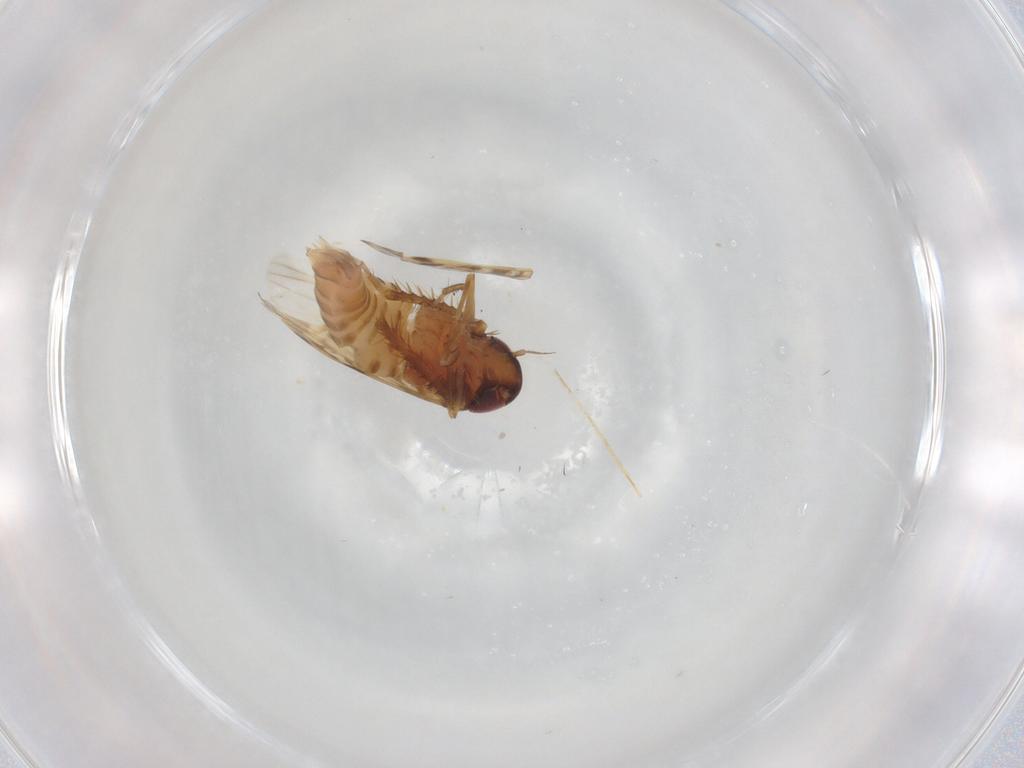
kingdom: Animalia
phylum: Arthropoda
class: Insecta
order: Hemiptera
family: Cicadellidae
